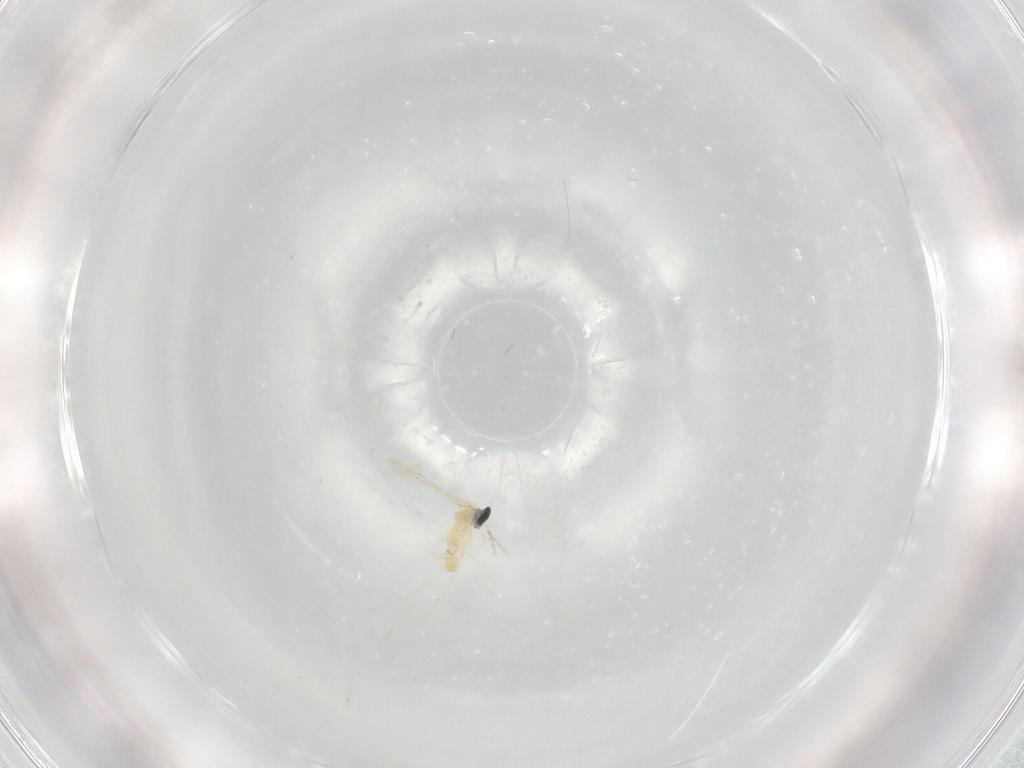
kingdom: Animalia
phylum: Arthropoda
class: Insecta
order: Diptera
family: Cecidomyiidae
